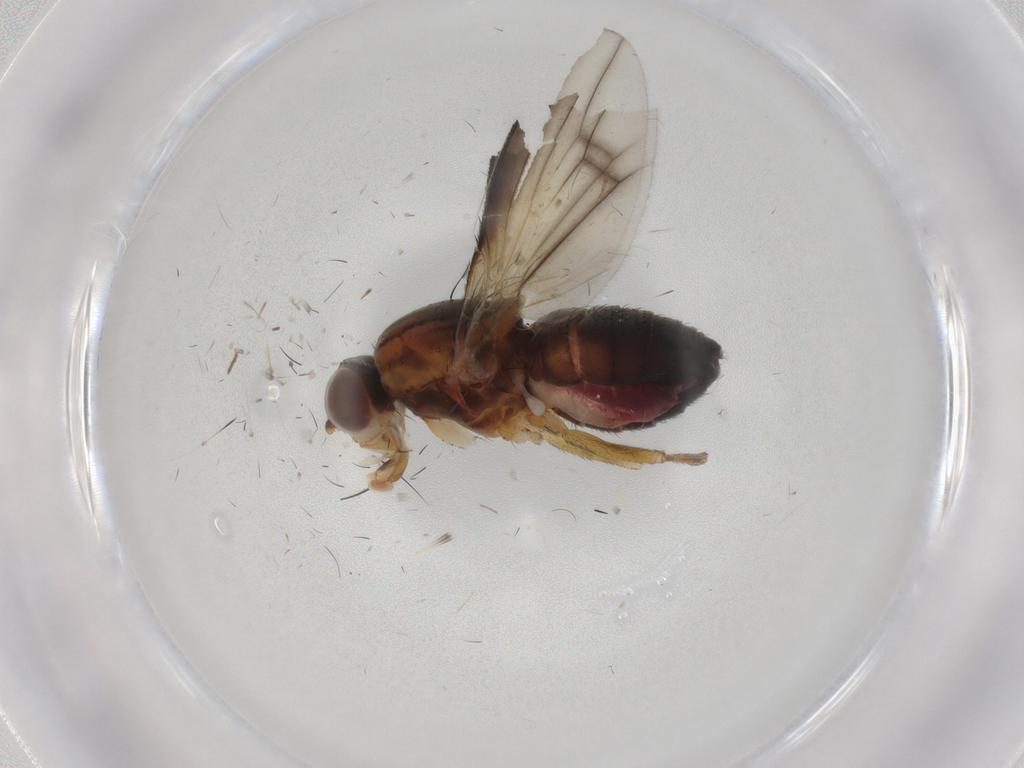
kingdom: Animalia
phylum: Arthropoda
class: Insecta
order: Diptera
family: Heleomyzidae
